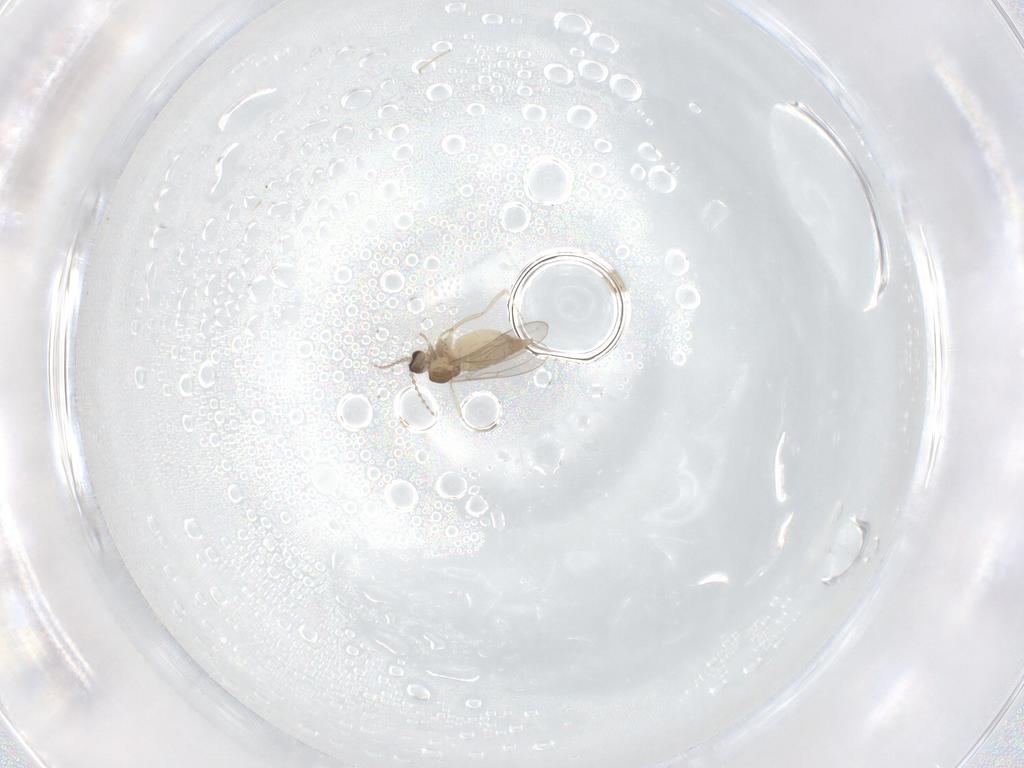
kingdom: Animalia
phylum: Arthropoda
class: Insecta
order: Diptera
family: Cecidomyiidae
